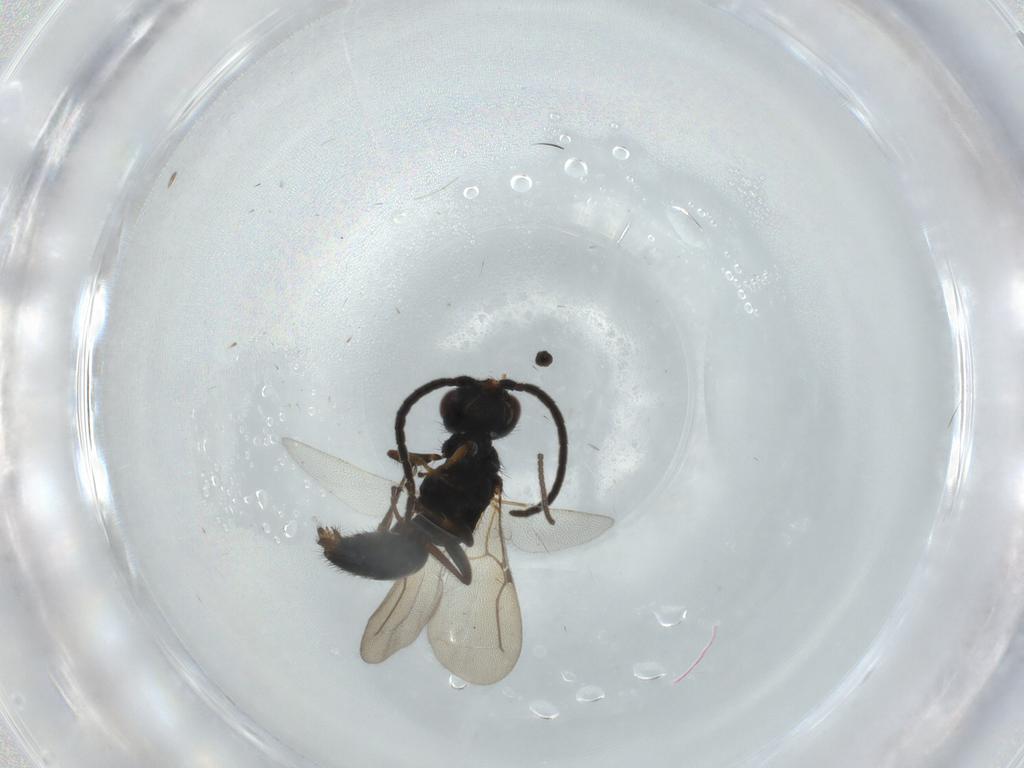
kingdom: Animalia
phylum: Arthropoda
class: Insecta
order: Hymenoptera
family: Bethylidae
